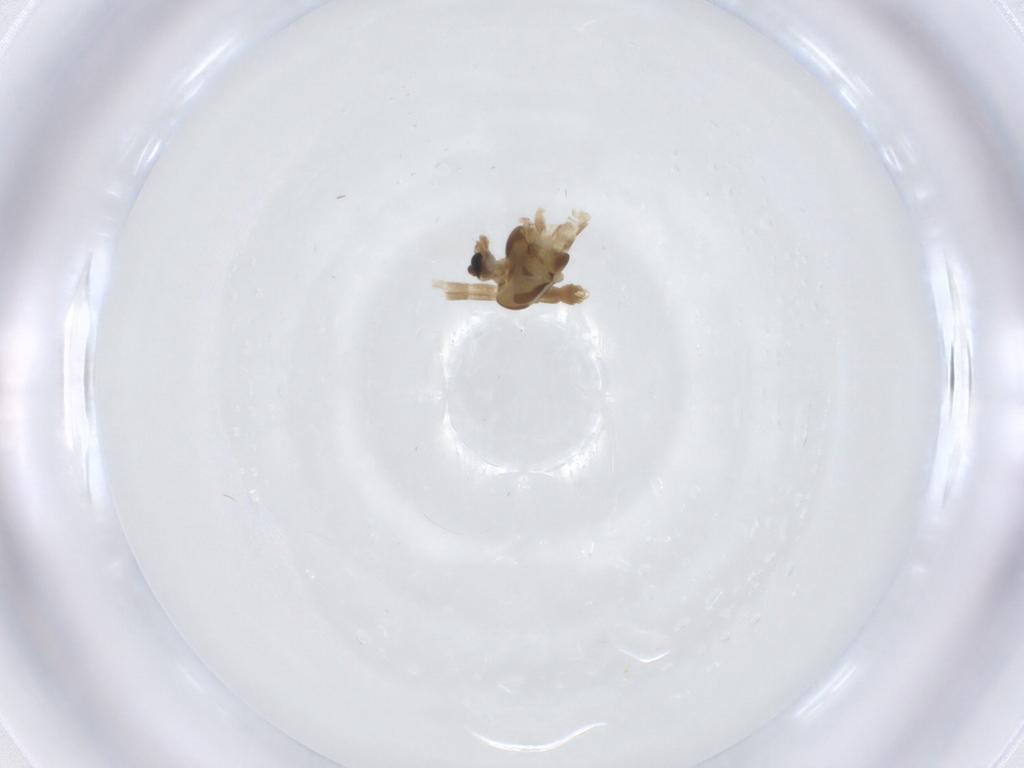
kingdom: Animalia
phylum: Arthropoda
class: Insecta
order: Diptera
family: Chironomidae
